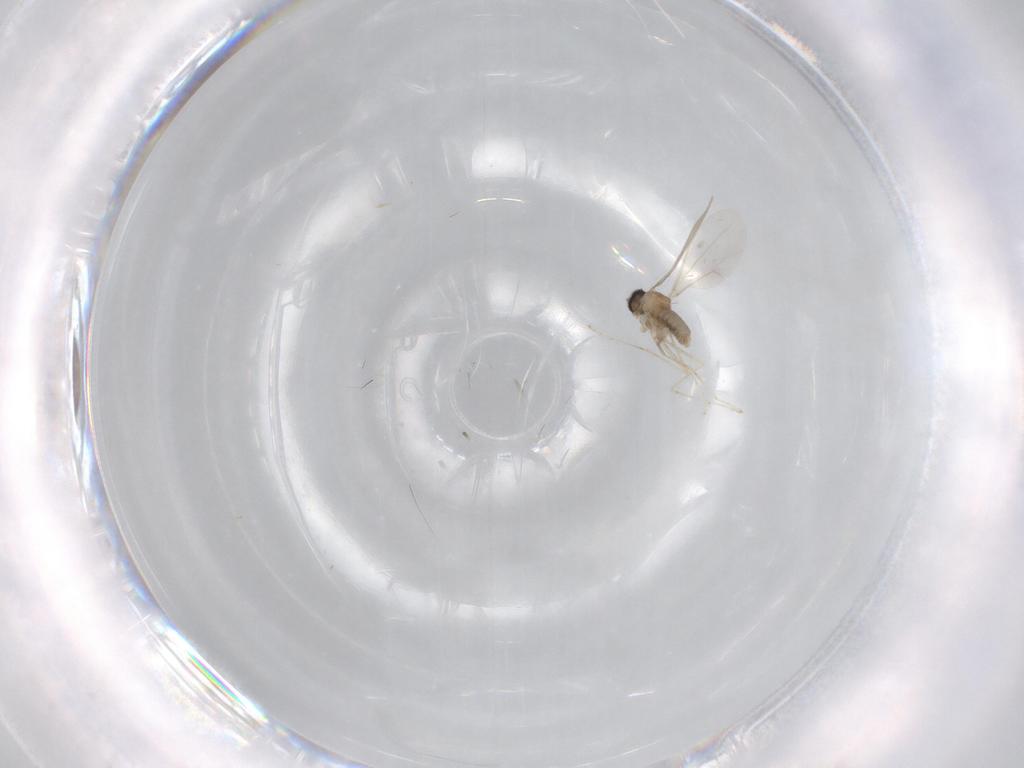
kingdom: Animalia
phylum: Arthropoda
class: Insecta
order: Diptera
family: Cecidomyiidae
